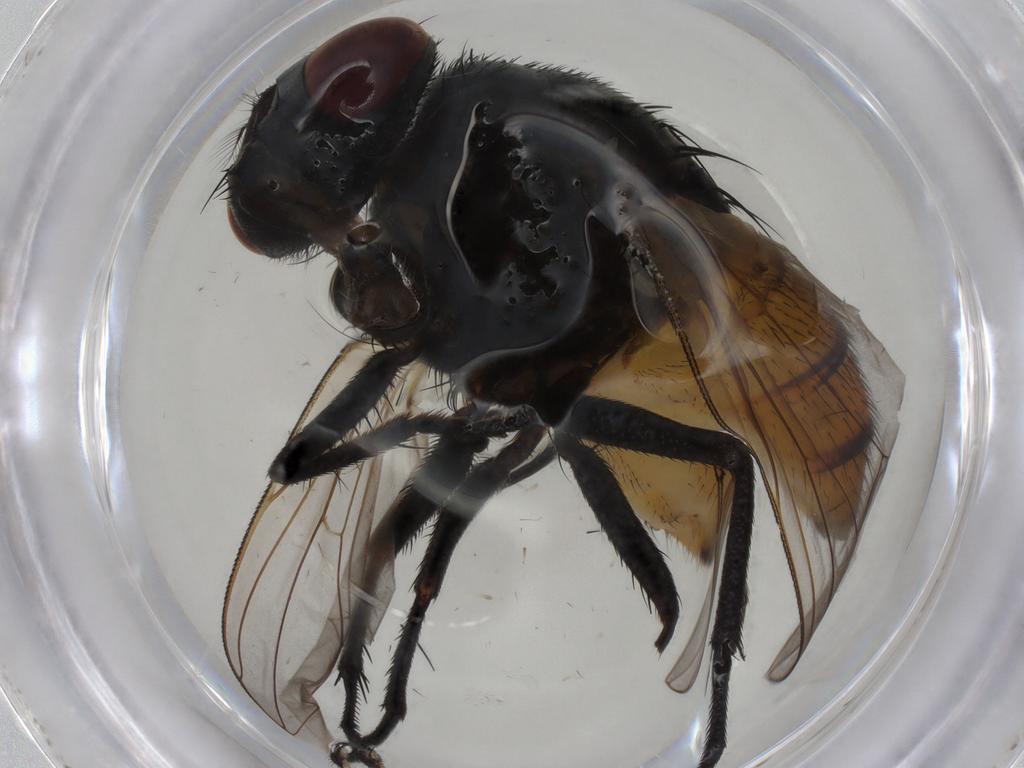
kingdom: Animalia
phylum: Arthropoda
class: Insecta
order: Diptera
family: Muscidae
